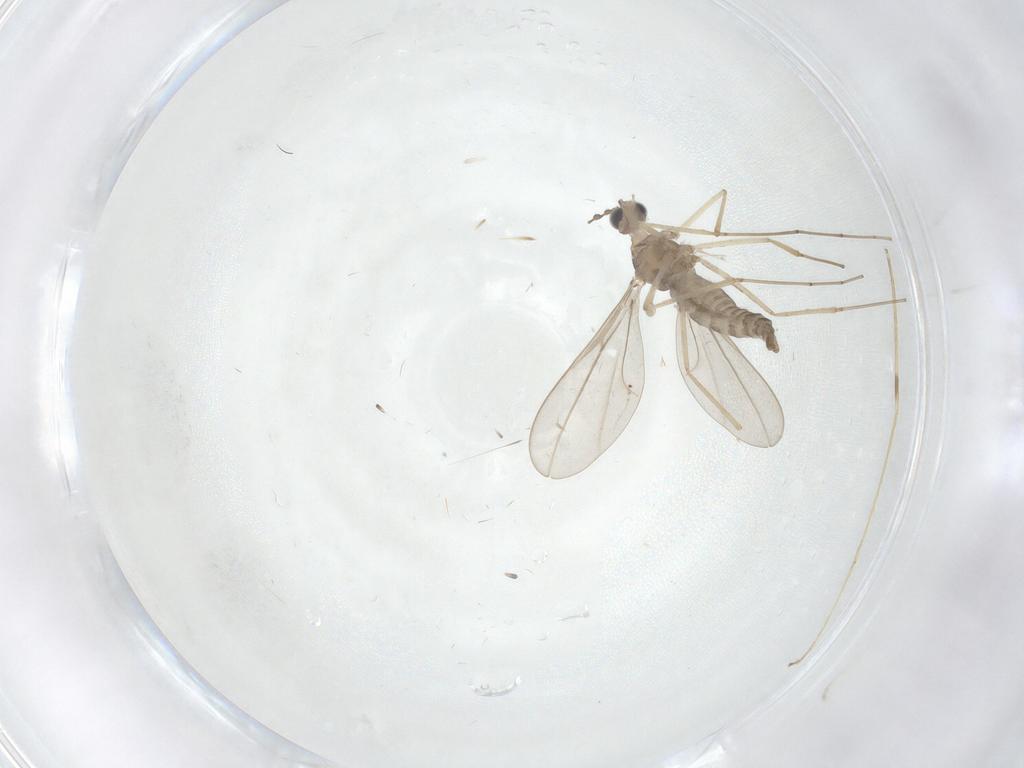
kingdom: Animalia
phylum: Arthropoda
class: Insecta
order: Diptera
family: Cecidomyiidae
